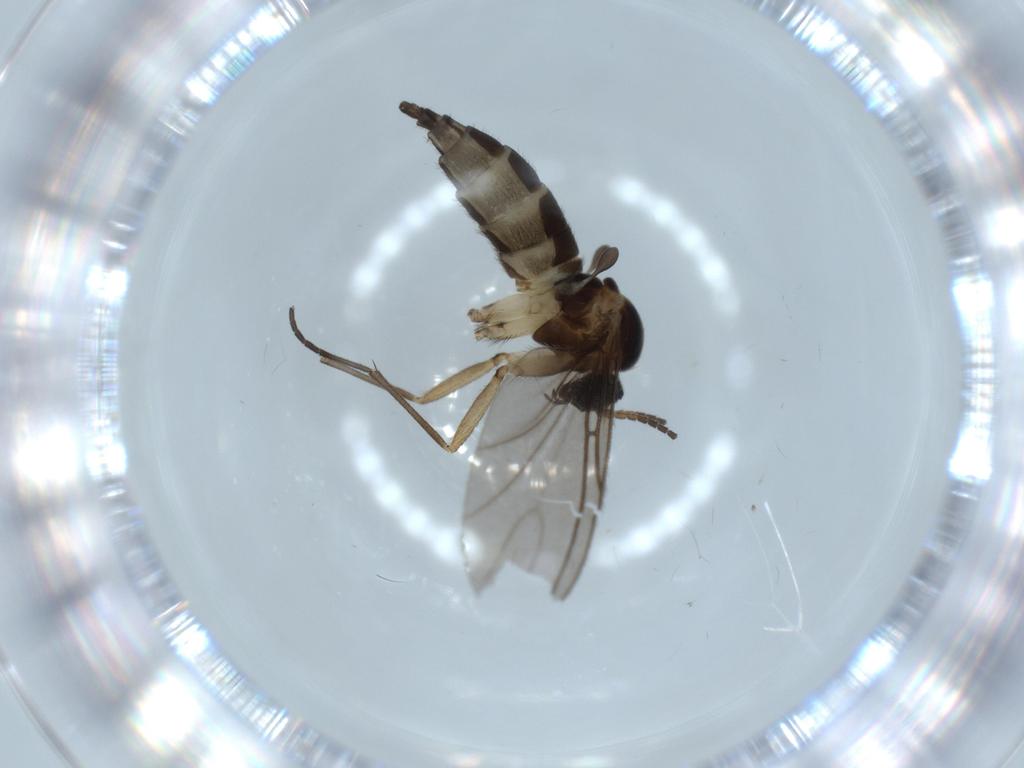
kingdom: Animalia
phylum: Arthropoda
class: Insecta
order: Diptera
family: Sciaridae
